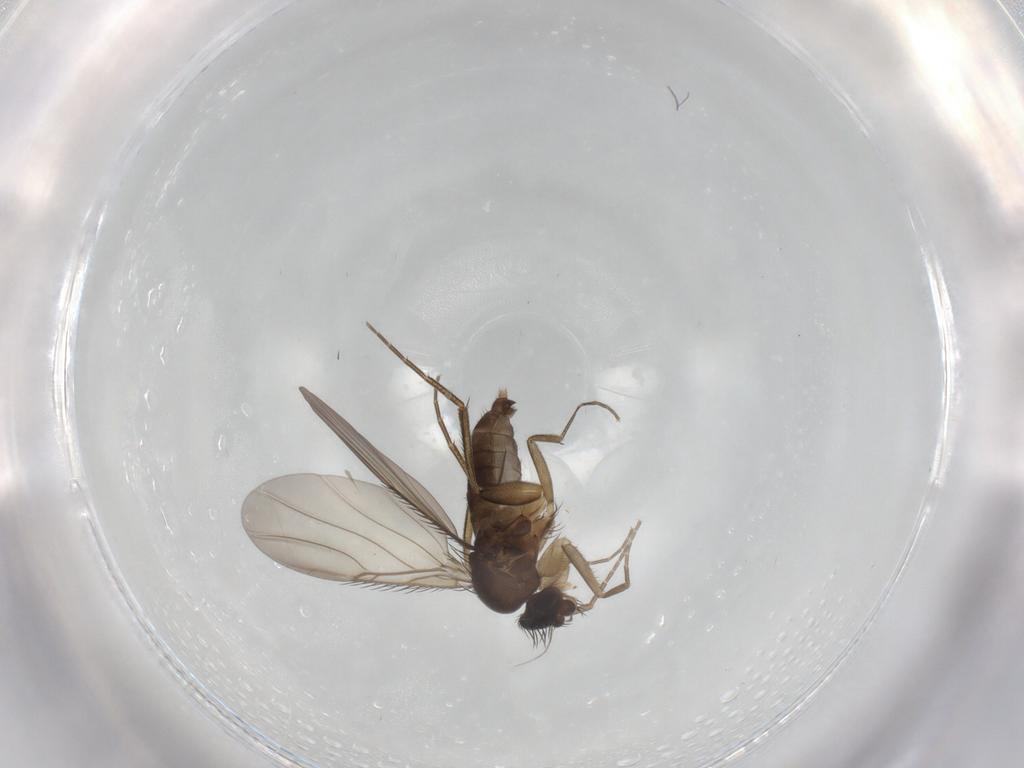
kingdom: Animalia
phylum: Arthropoda
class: Insecta
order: Diptera
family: Phoridae
